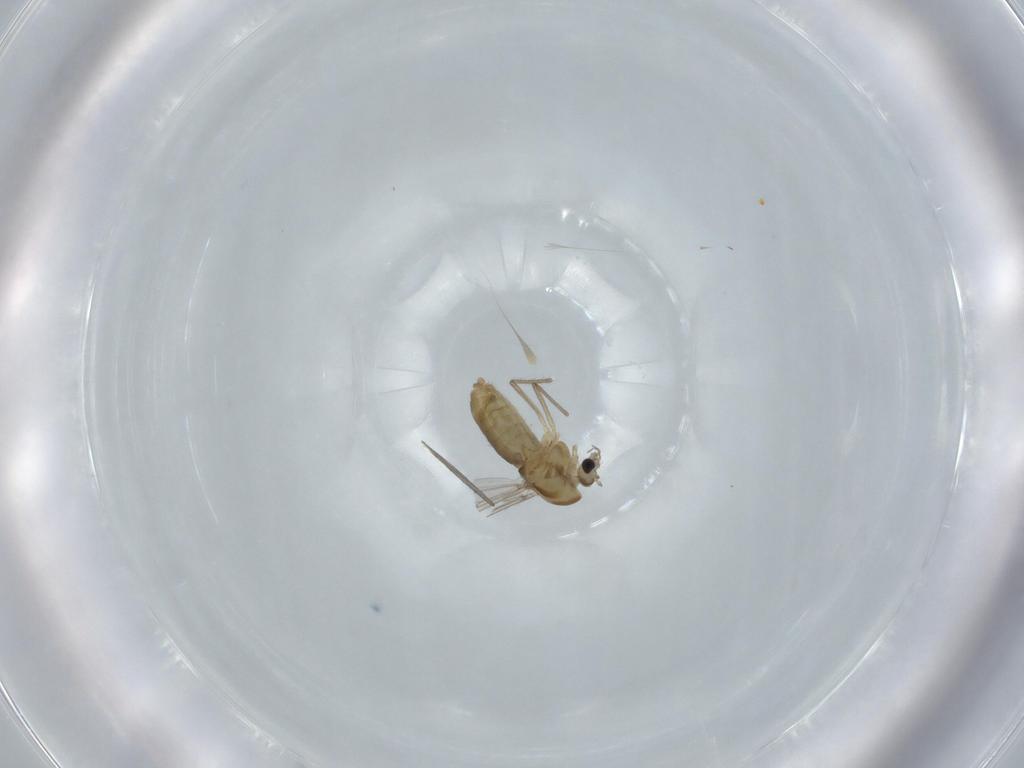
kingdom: Animalia
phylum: Arthropoda
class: Insecta
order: Diptera
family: Chironomidae
